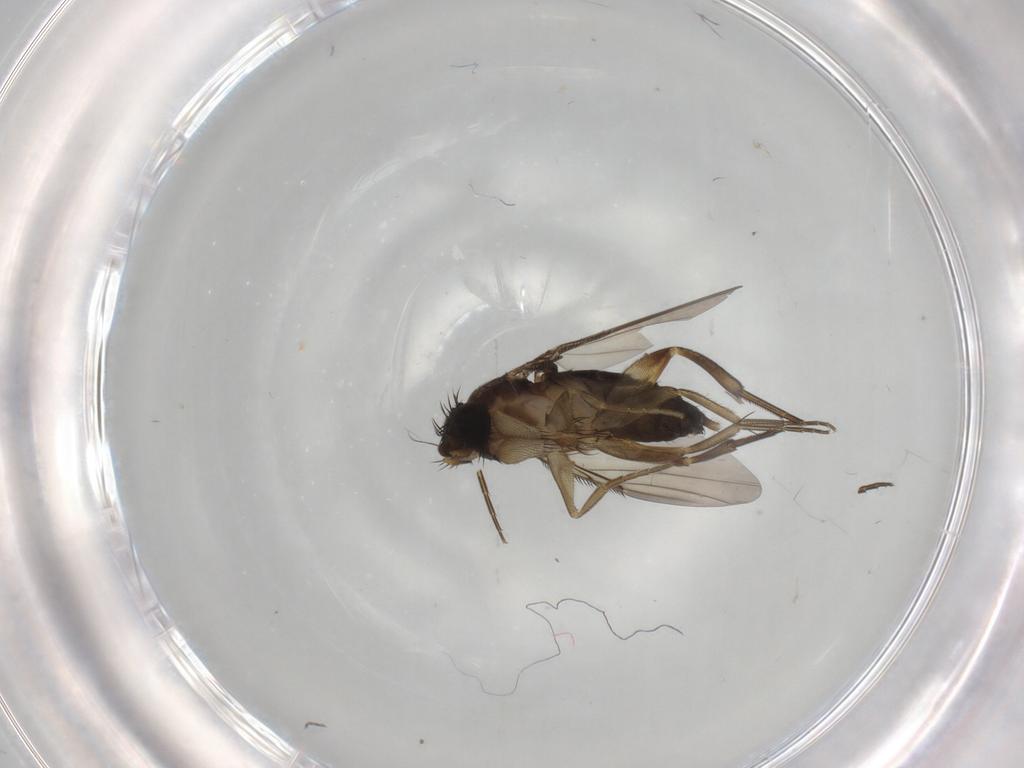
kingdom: Animalia
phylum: Arthropoda
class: Insecta
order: Diptera
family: Phoridae
